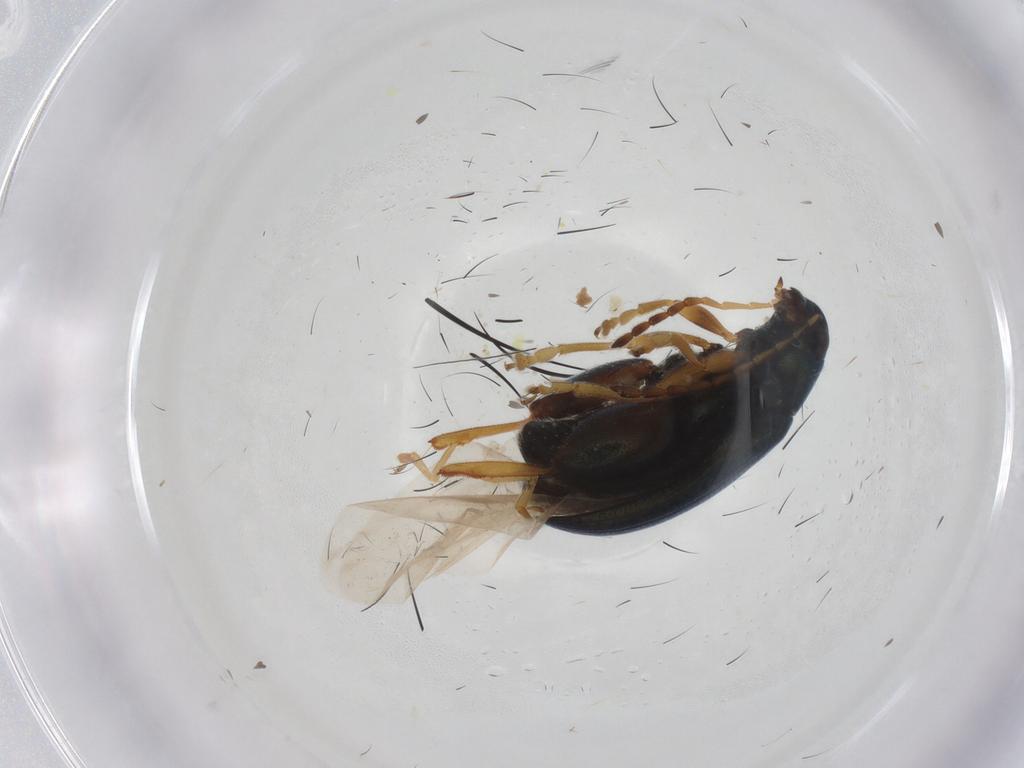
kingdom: Animalia
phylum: Arthropoda
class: Insecta
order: Coleoptera
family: Chrysomelidae
